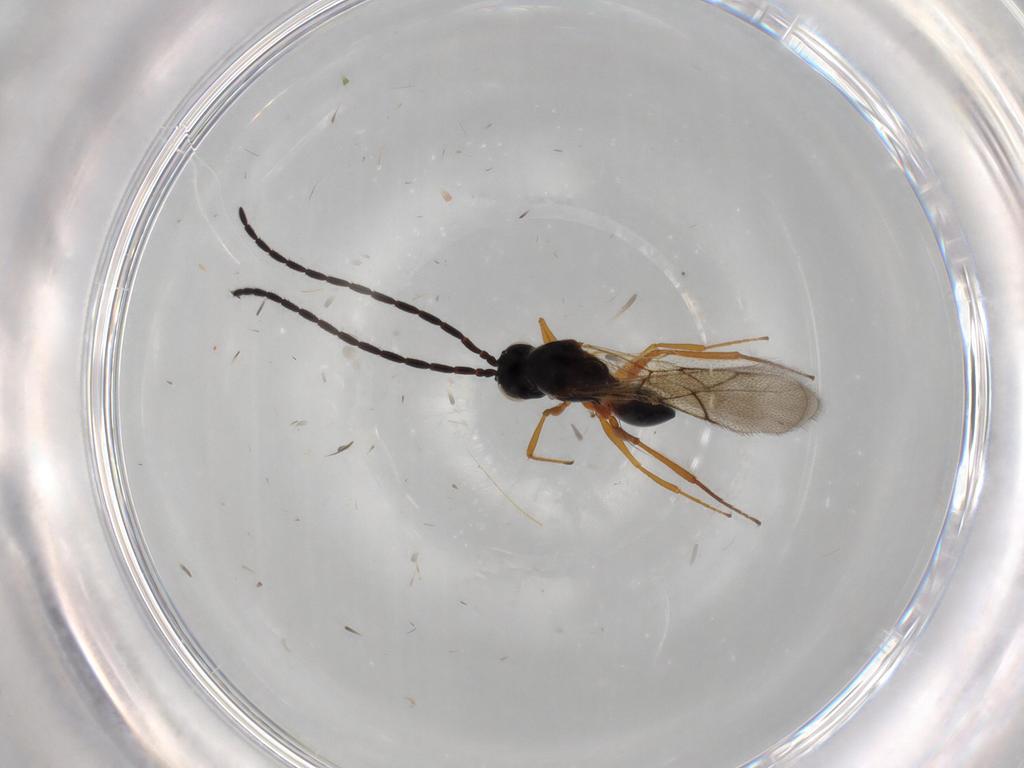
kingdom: Animalia
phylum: Arthropoda
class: Insecta
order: Hymenoptera
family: Figitidae
